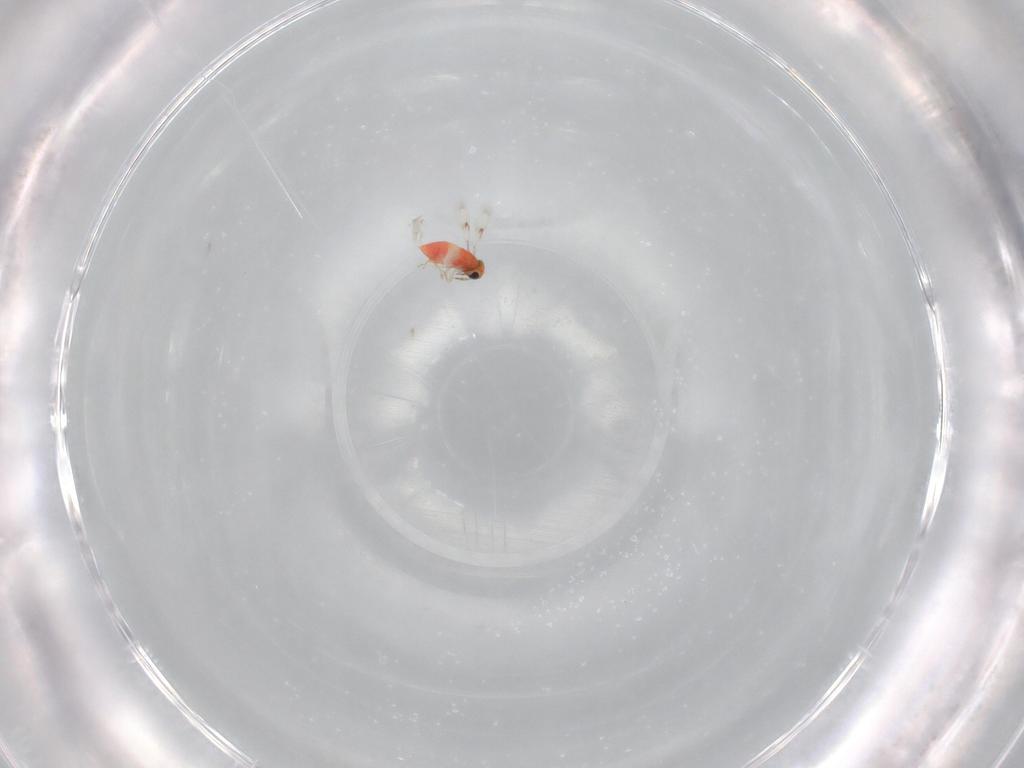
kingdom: Animalia
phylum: Arthropoda
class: Insecta
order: Hymenoptera
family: Trichogrammatidae
